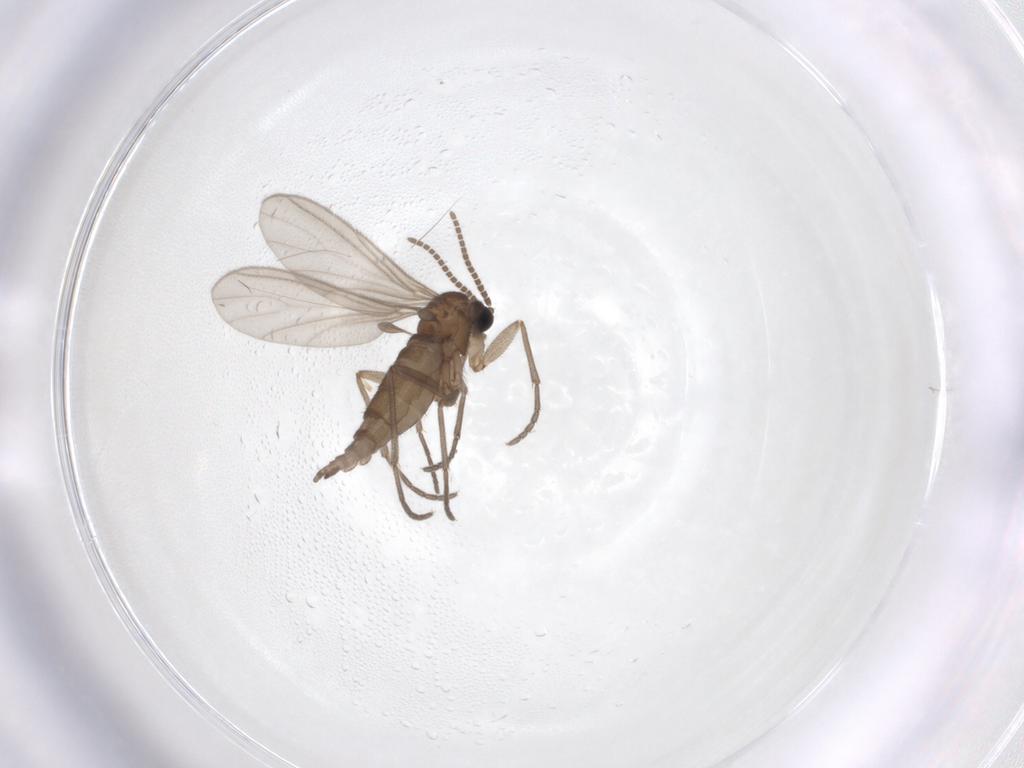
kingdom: Animalia
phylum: Arthropoda
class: Insecta
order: Diptera
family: Sciaridae
